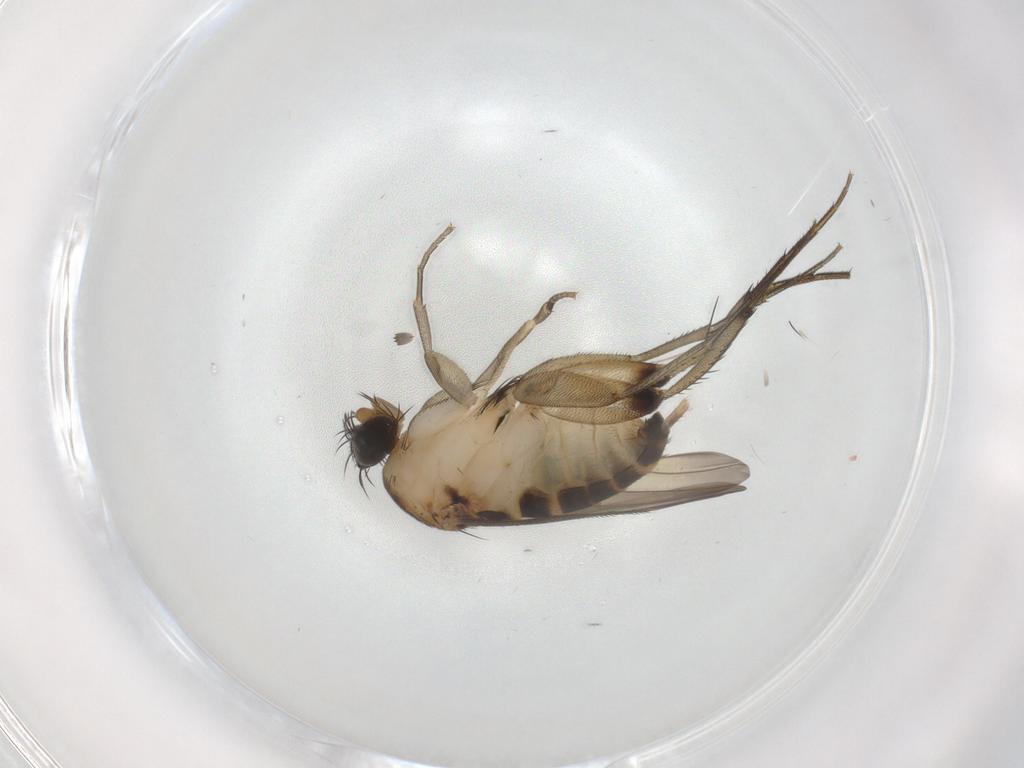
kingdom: Animalia
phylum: Arthropoda
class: Insecta
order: Diptera
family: Phoridae
